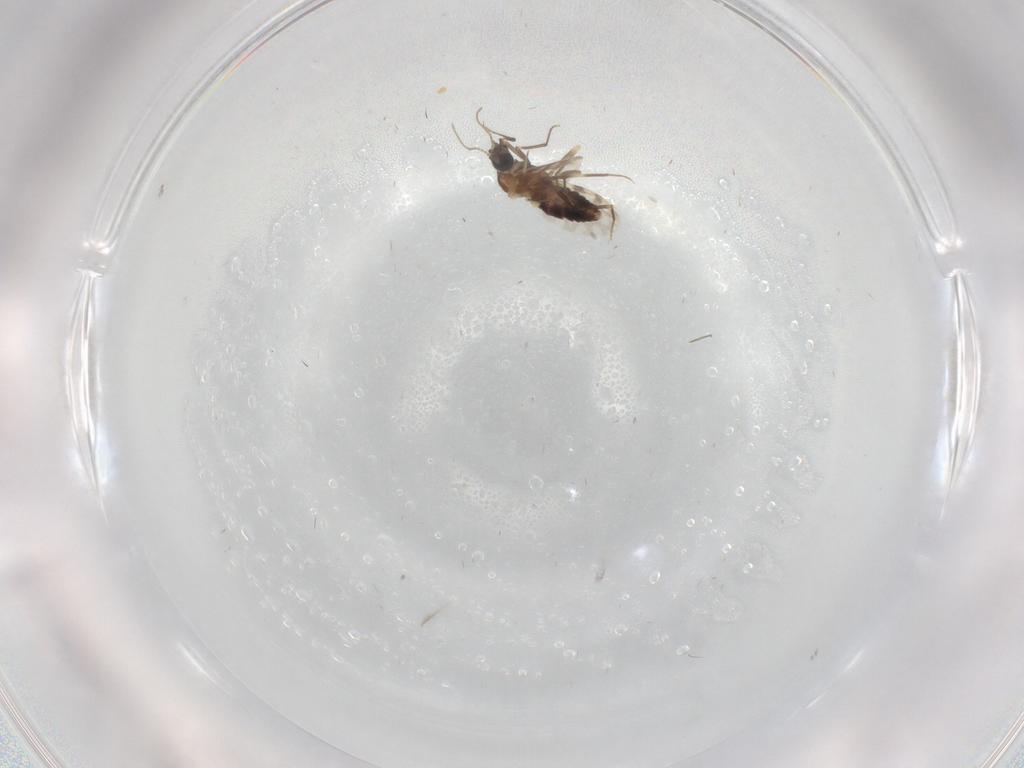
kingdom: Animalia
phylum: Arthropoda
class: Insecta
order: Diptera
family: Ceratopogonidae
